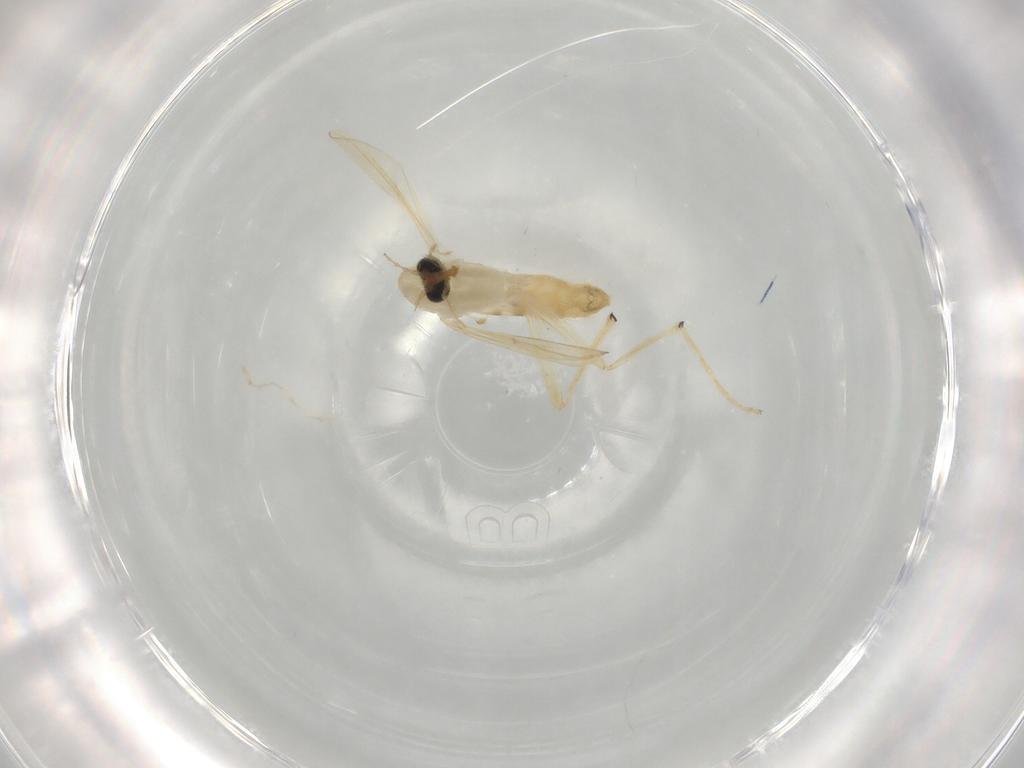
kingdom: Animalia
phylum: Arthropoda
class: Insecta
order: Diptera
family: Chironomidae
